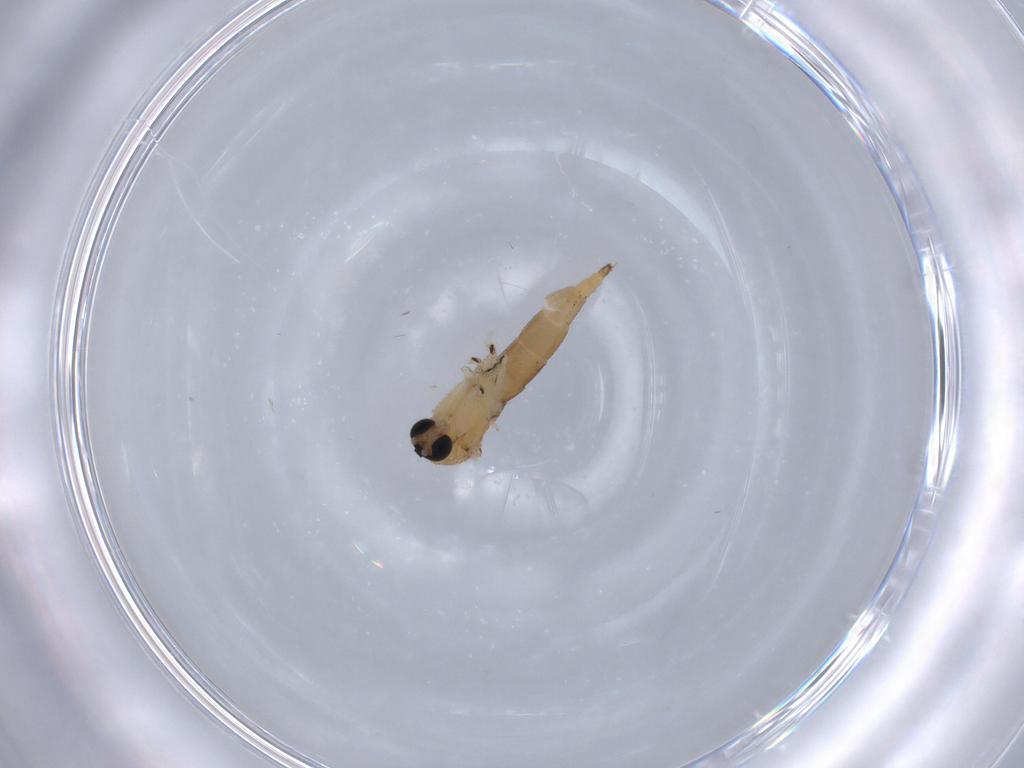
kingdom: Animalia
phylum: Arthropoda
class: Insecta
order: Diptera
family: Sciaridae
